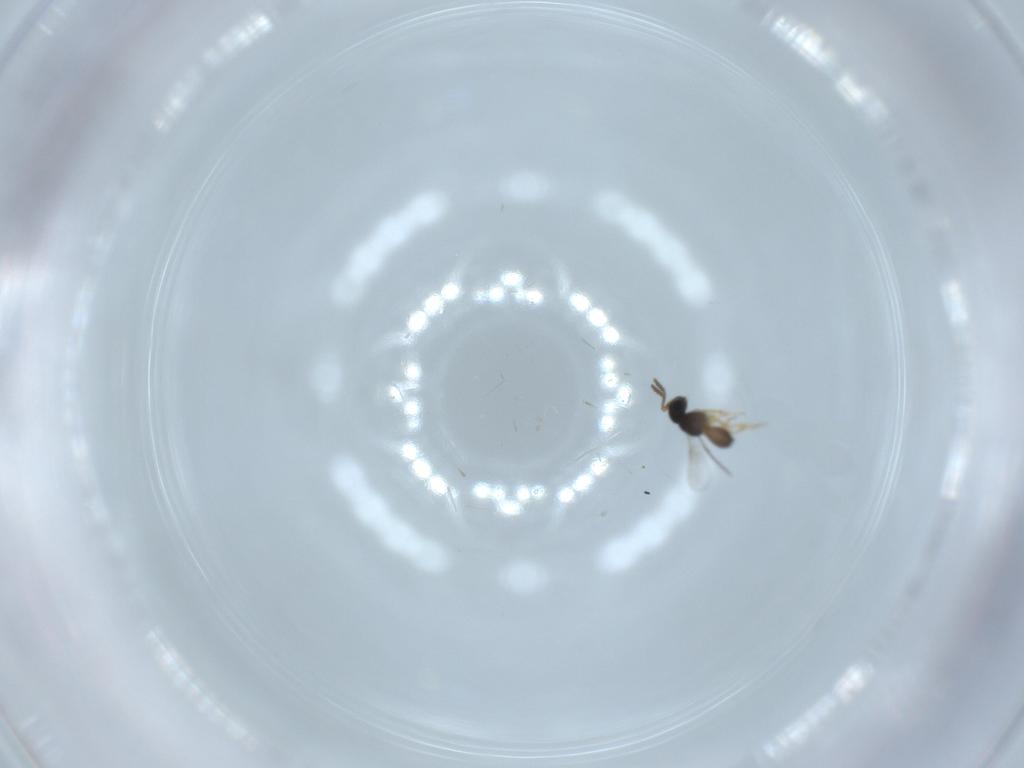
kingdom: Animalia
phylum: Arthropoda
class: Insecta
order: Hymenoptera
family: Scelionidae
